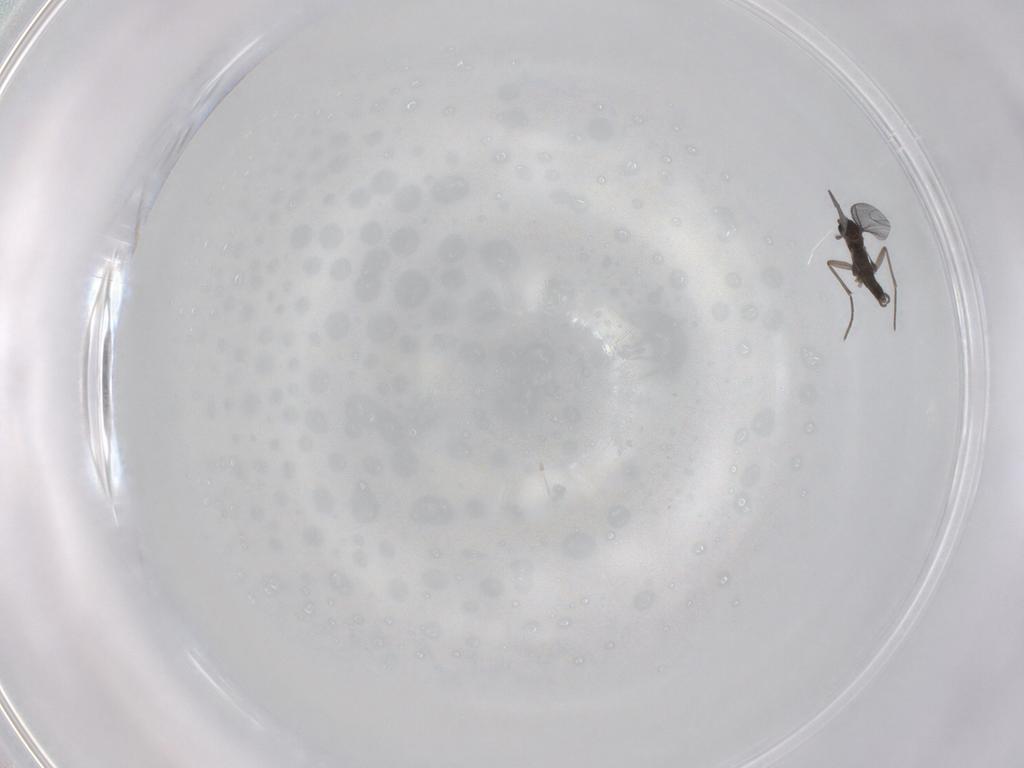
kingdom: Animalia
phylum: Arthropoda
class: Insecta
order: Diptera
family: Sciaridae
